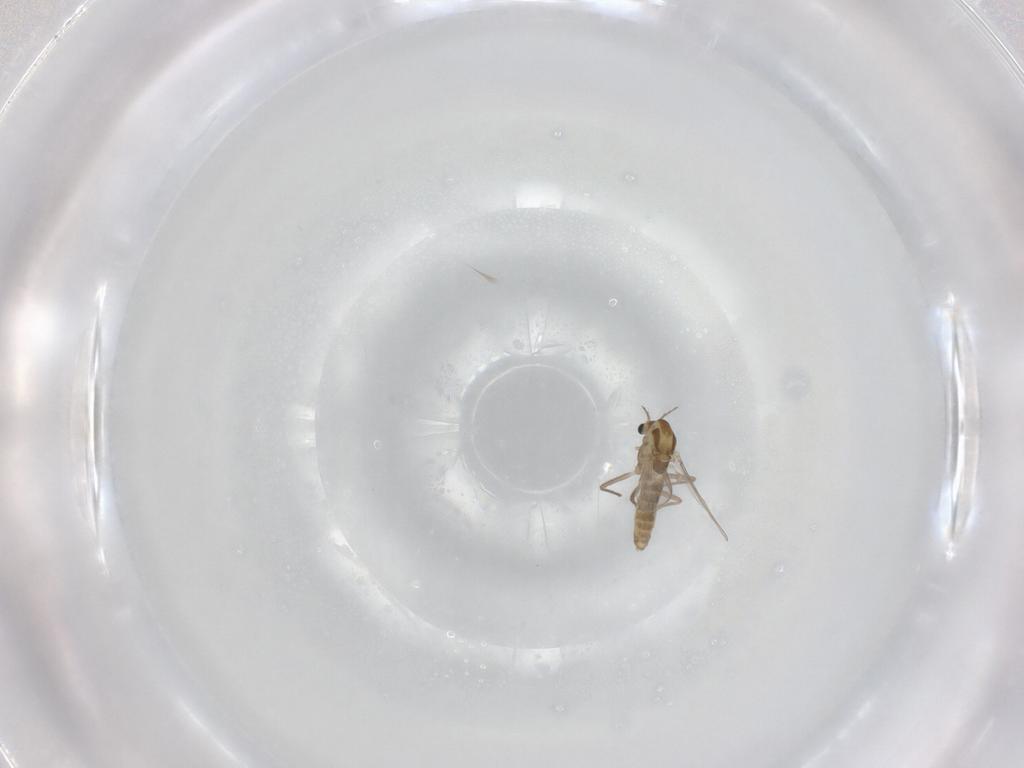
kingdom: Animalia
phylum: Arthropoda
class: Insecta
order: Diptera
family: Chironomidae
